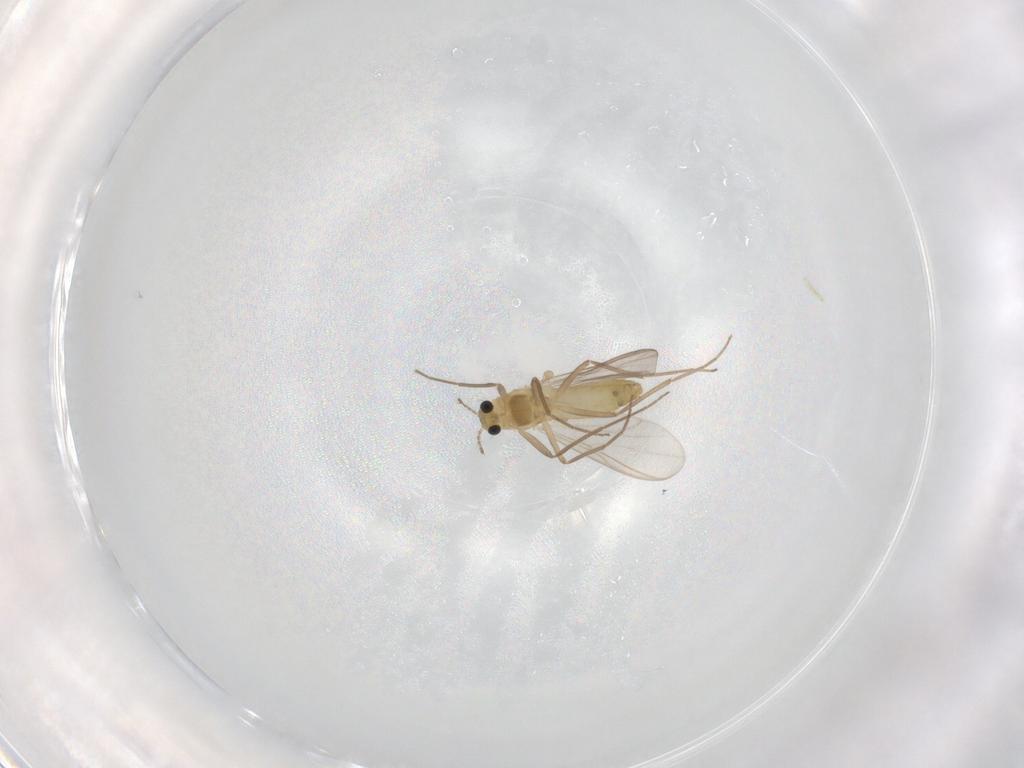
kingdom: Animalia
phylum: Arthropoda
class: Insecta
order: Diptera
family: Chironomidae
